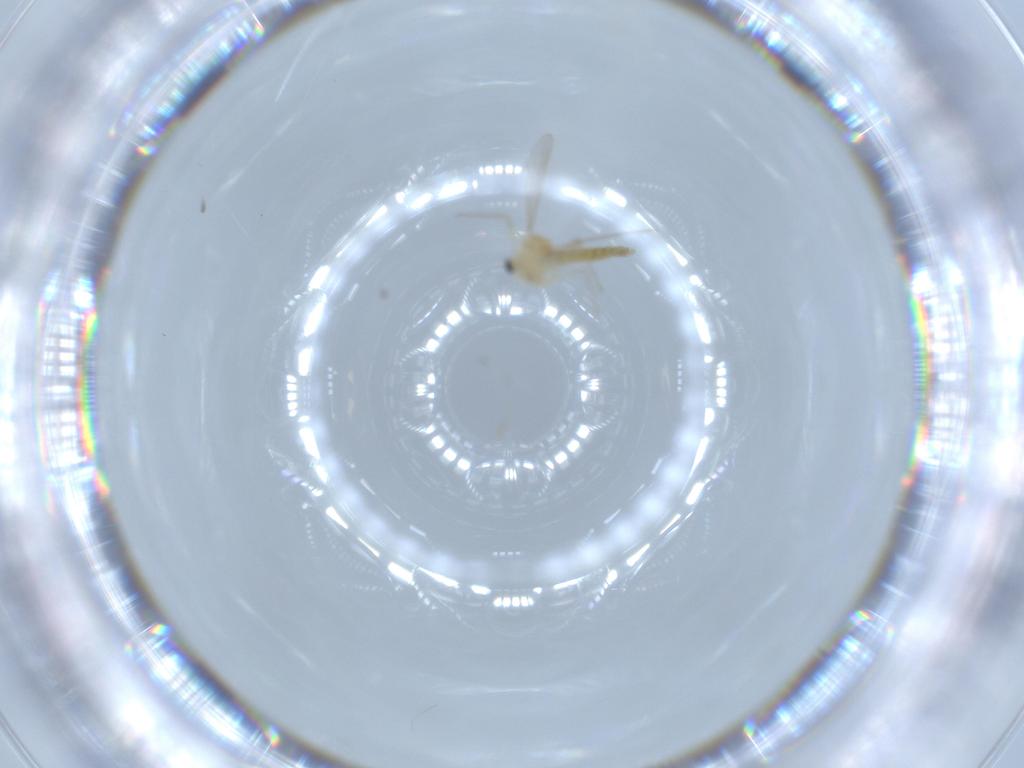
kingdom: Animalia
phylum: Arthropoda
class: Insecta
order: Diptera
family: Chironomidae
